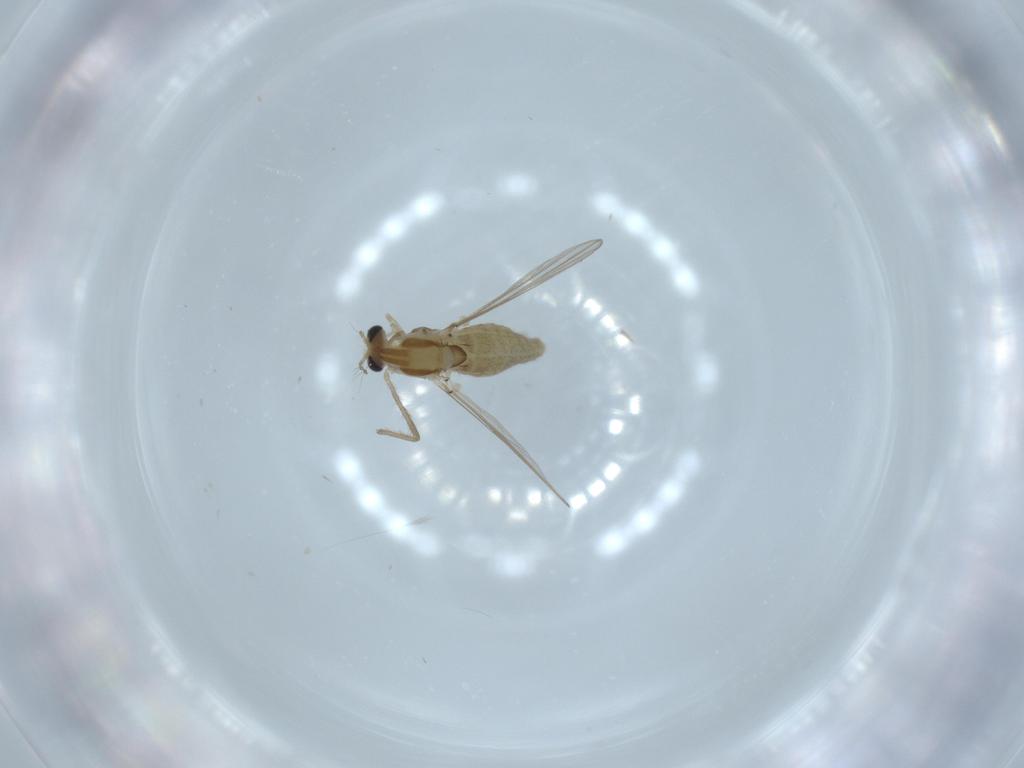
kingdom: Animalia
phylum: Arthropoda
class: Insecta
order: Diptera
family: Cecidomyiidae
